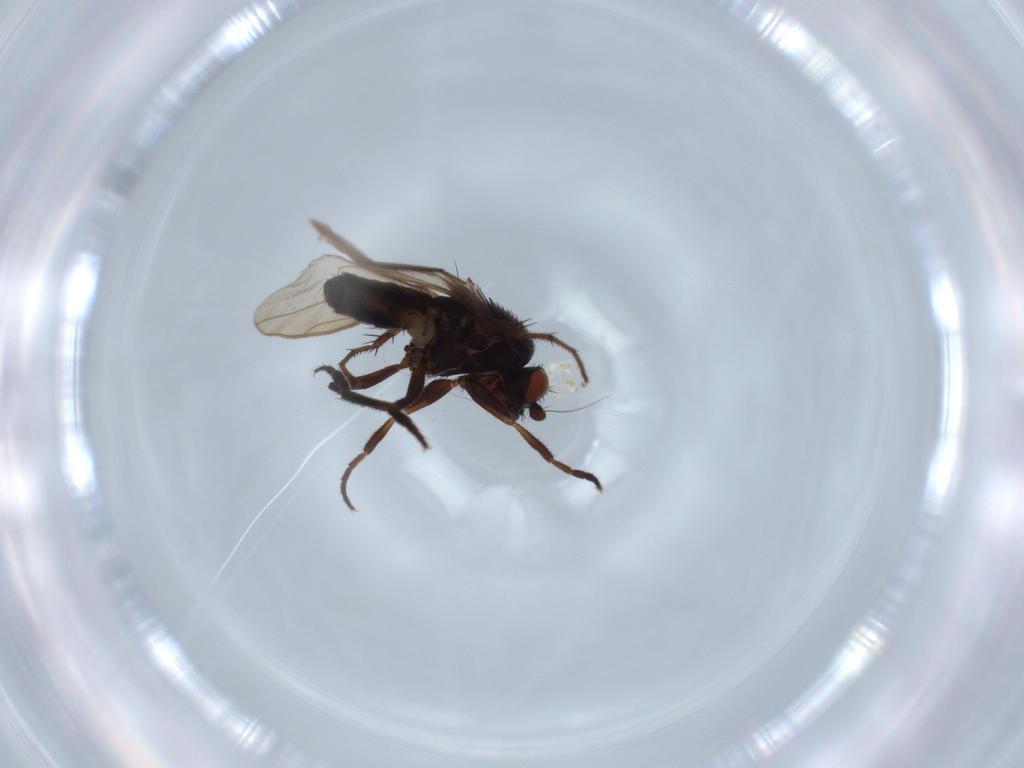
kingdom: Animalia
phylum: Arthropoda
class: Insecta
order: Diptera
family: Sphaeroceridae
